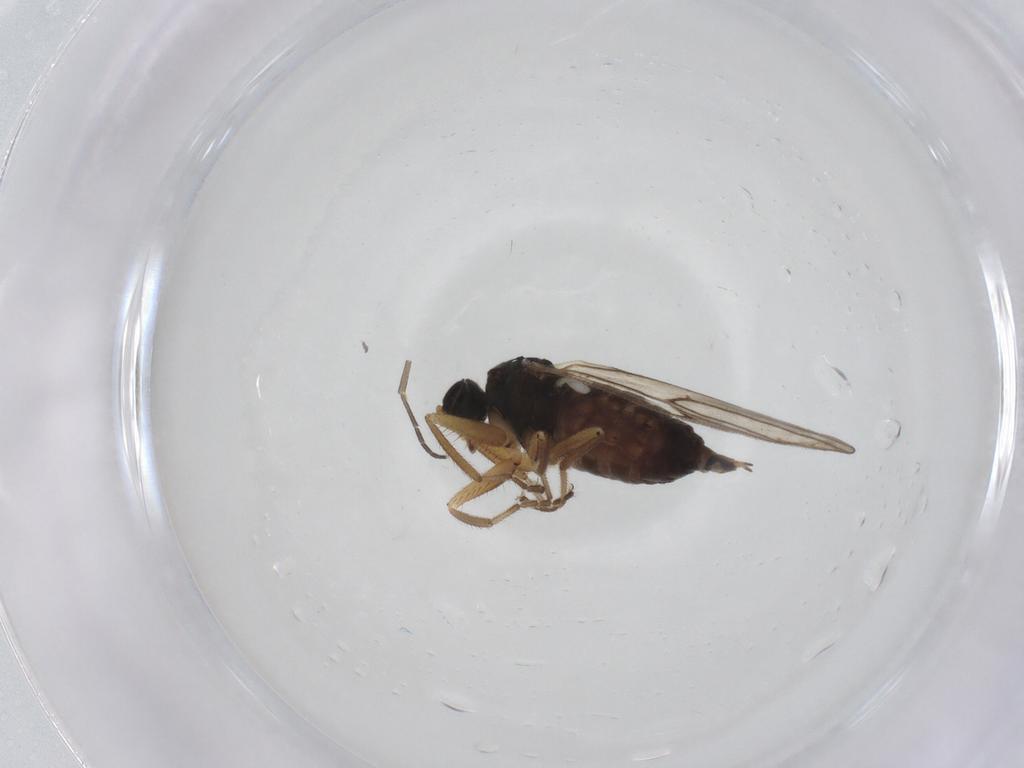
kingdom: Animalia
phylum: Arthropoda
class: Insecta
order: Diptera
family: Hybotidae
